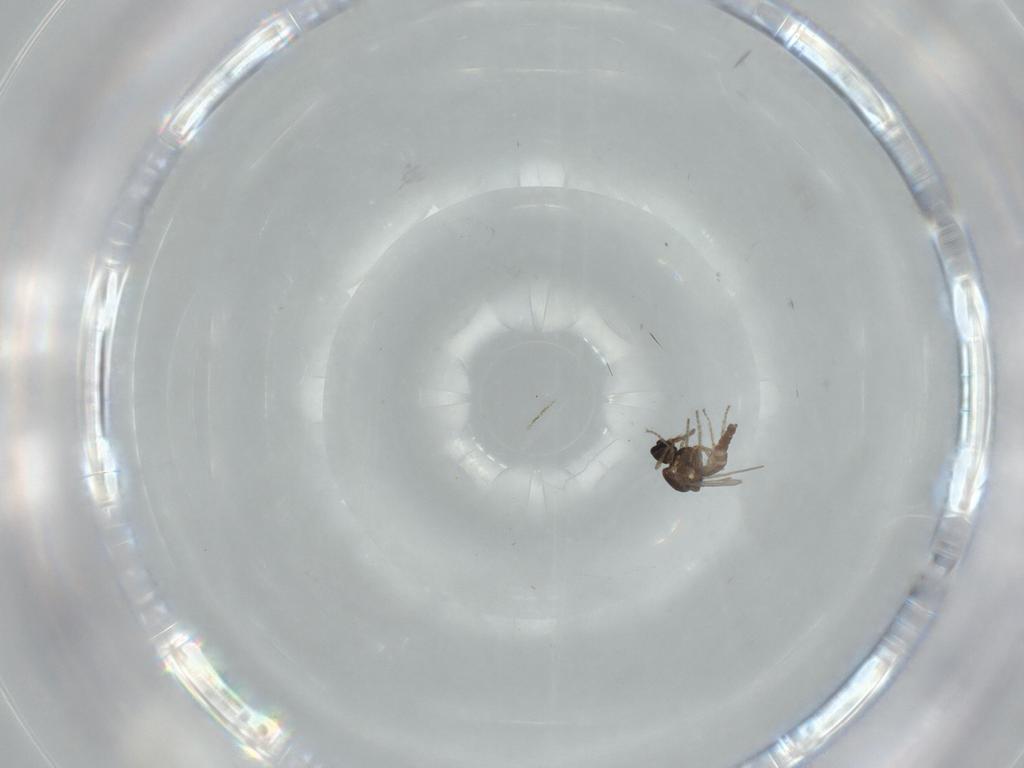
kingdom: Animalia
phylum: Arthropoda
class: Insecta
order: Diptera
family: Ceratopogonidae
